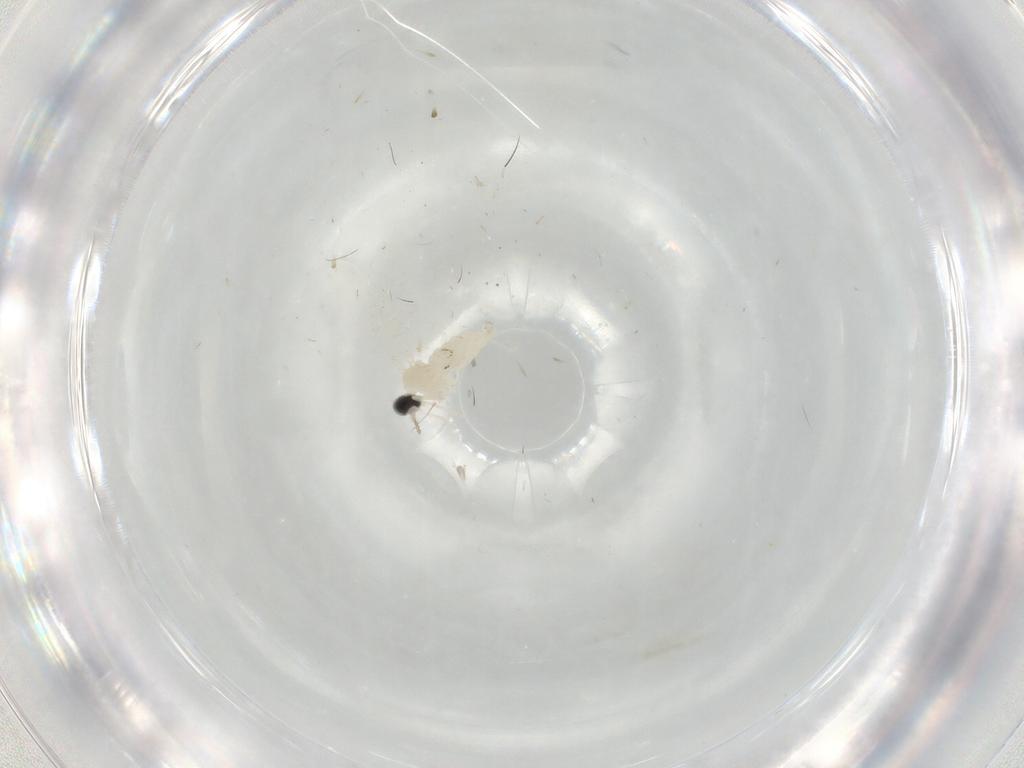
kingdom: Animalia
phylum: Arthropoda
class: Insecta
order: Diptera
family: Cecidomyiidae
